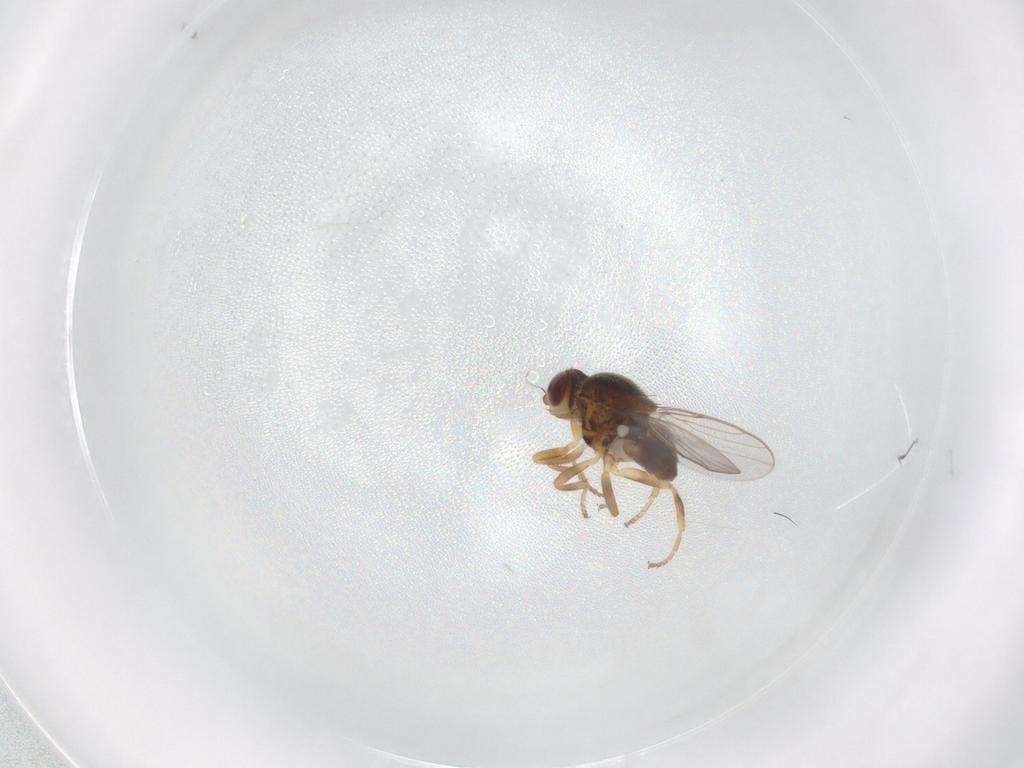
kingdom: Animalia
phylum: Arthropoda
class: Insecta
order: Diptera
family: Chloropidae
